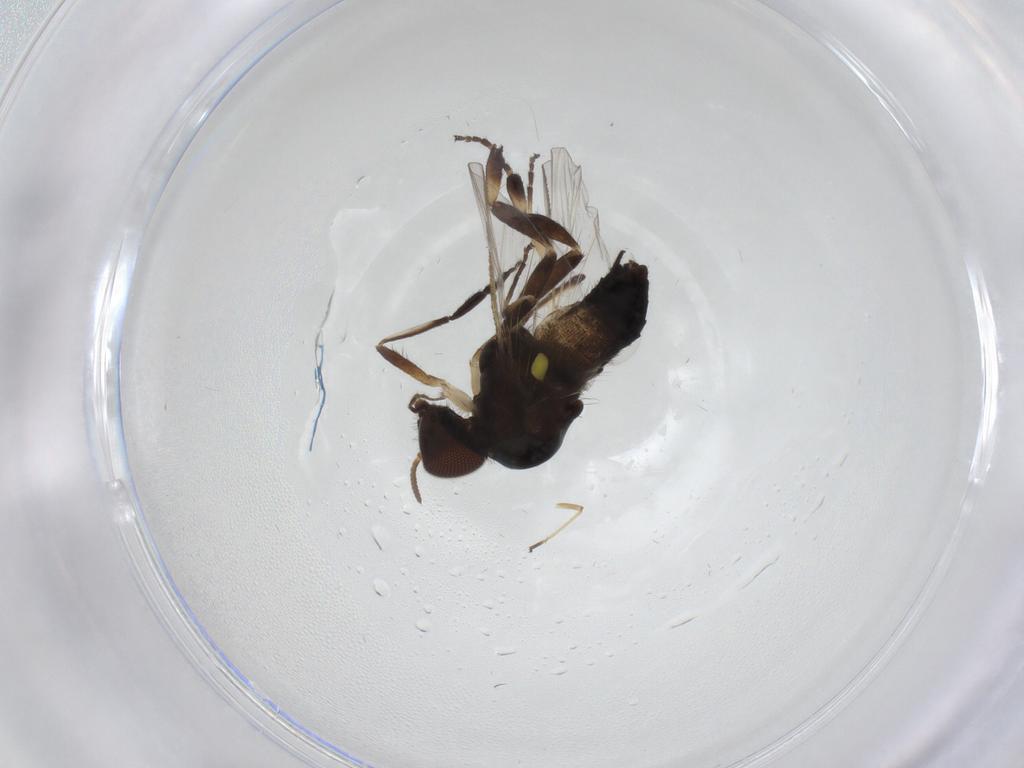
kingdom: Animalia
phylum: Arthropoda
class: Insecta
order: Diptera
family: Simuliidae
